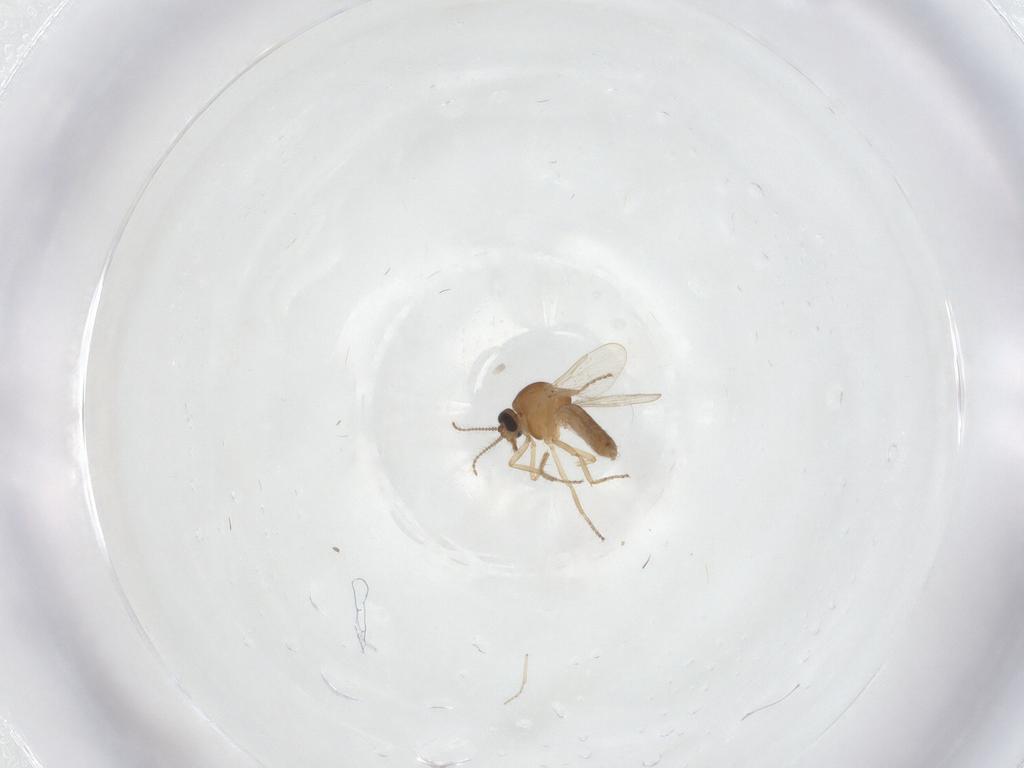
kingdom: Animalia
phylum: Arthropoda
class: Insecta
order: Diptera
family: Ceratopogonidae
